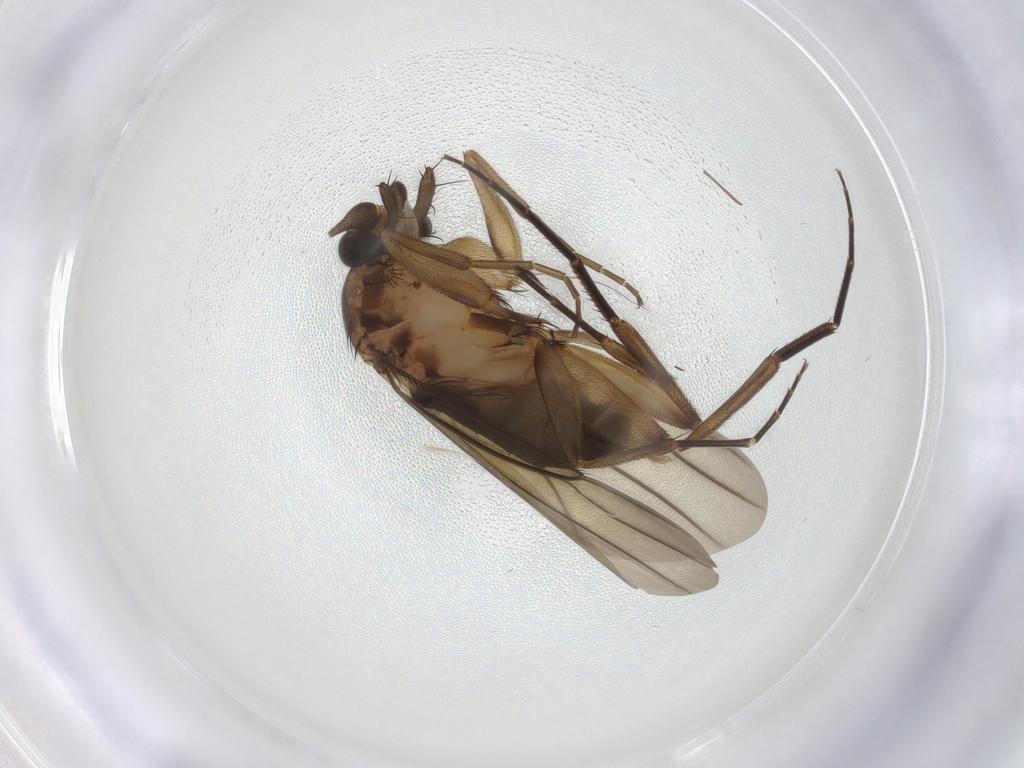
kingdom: Animalia
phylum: Arthropoda
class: Insecta
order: Diptera
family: Phoridae
